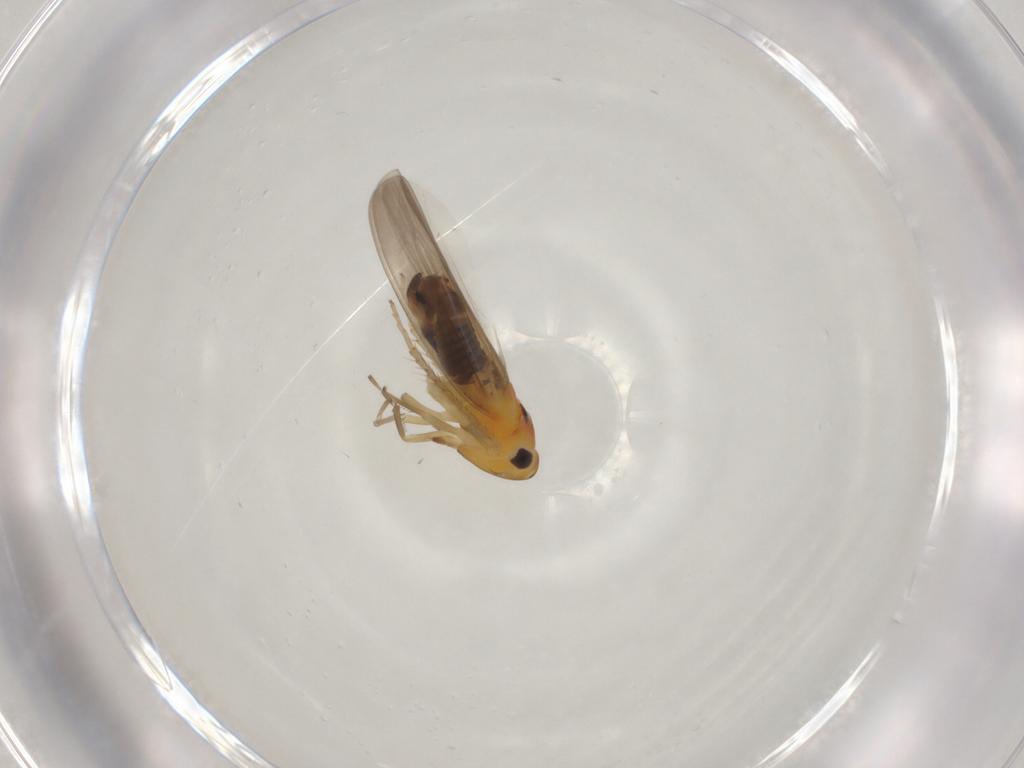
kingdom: Animalia
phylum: Arthropoda
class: Insecta
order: Hemiptera
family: Cicadellidae
